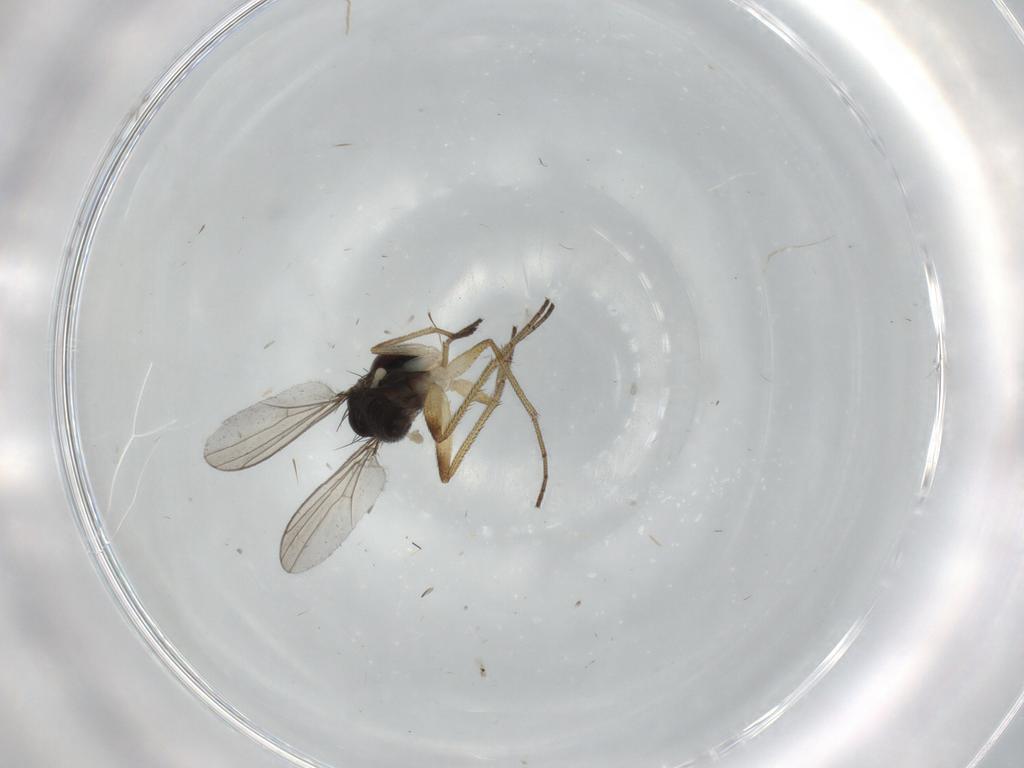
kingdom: Animalia
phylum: Arthropoda
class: Insecta
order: Diptera
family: Dolichopodidae
